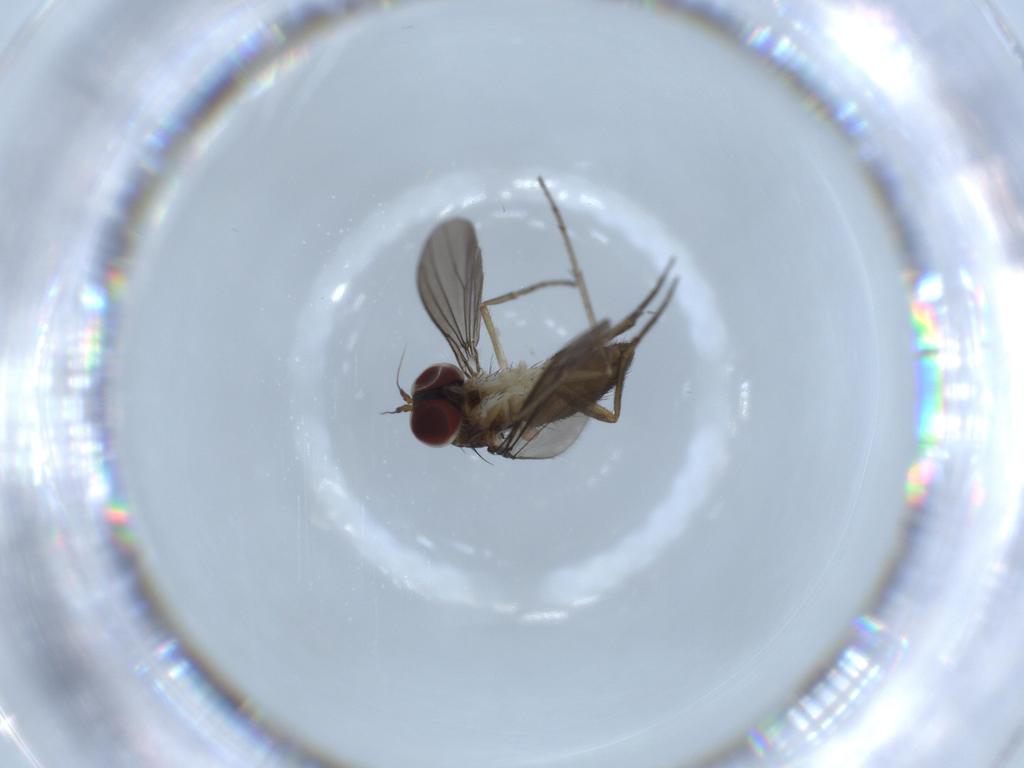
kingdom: Animalia
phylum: Arthropoda
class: Insecta
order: Diptera
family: Dolichopodidae
